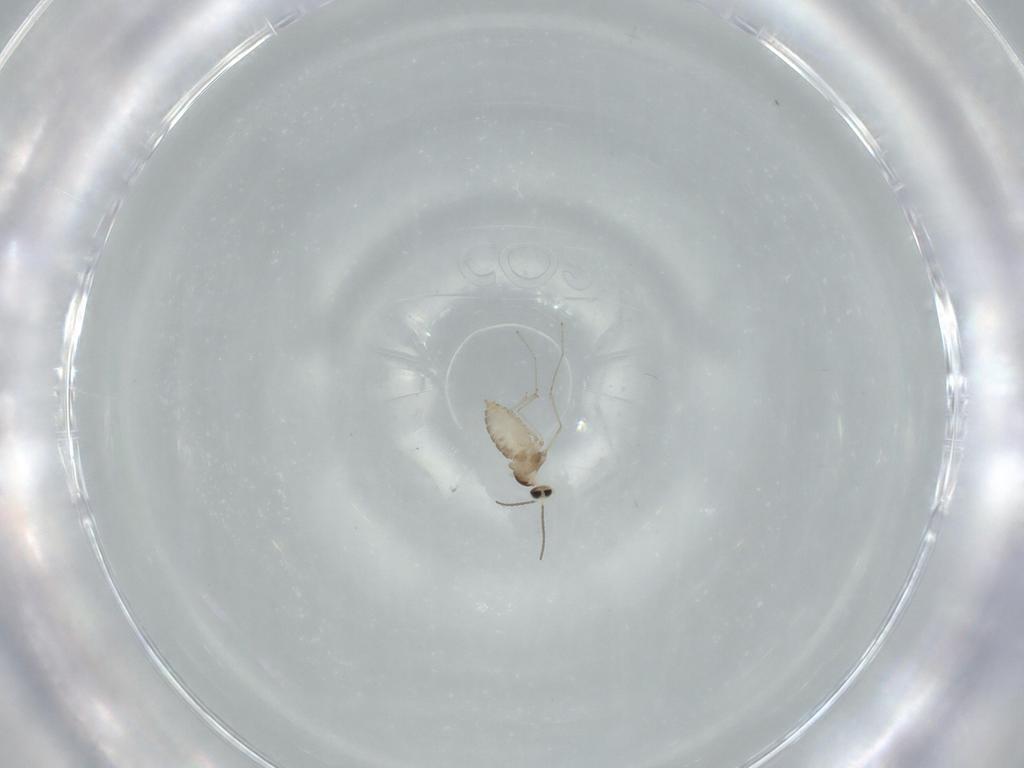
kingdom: Animalia
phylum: Arthropoda
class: Insecta
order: Diptera
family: Cecidomyiidae
